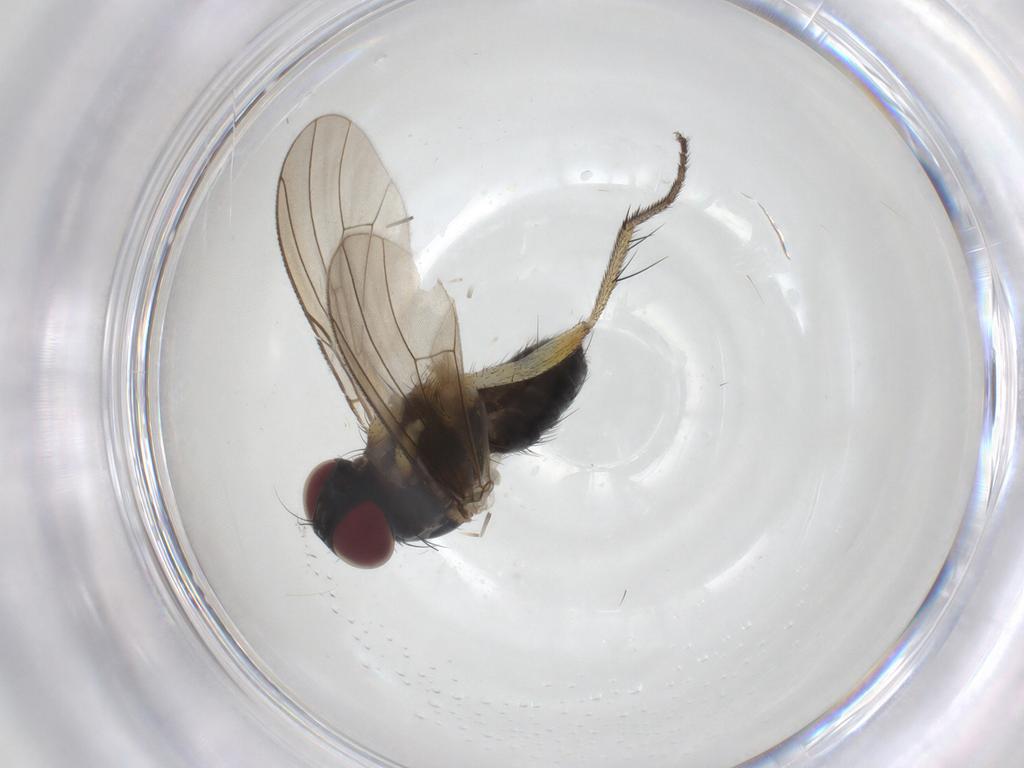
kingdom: Animalia
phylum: Arthropoda
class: Insecta
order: Diptera
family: Muscidae
